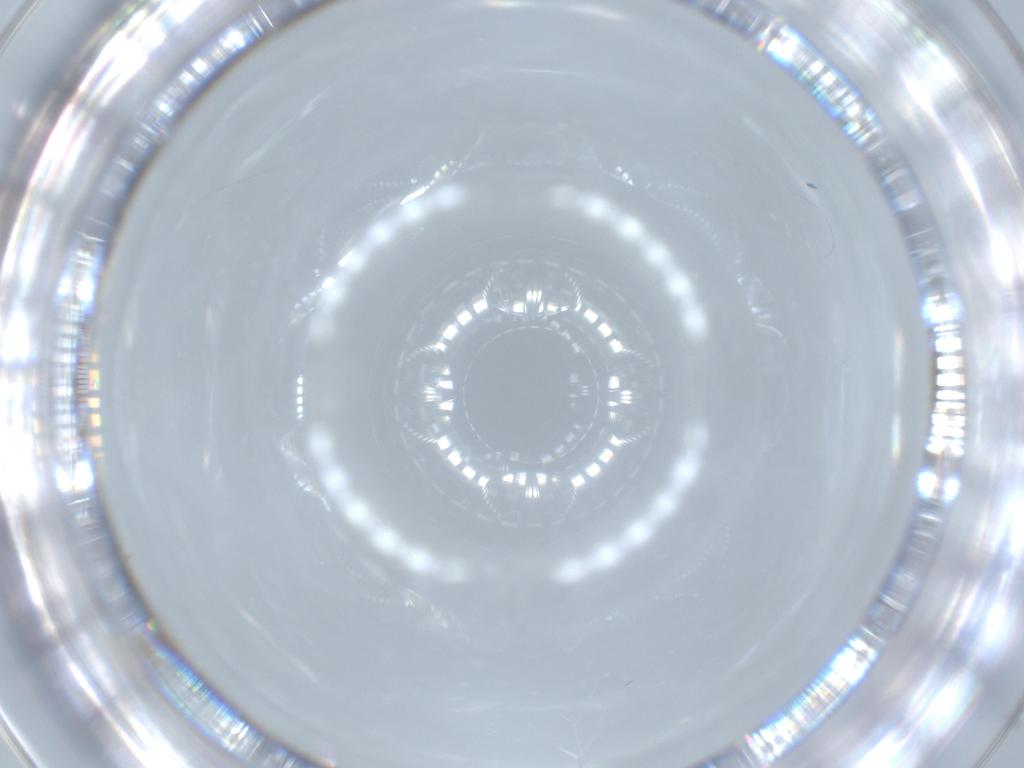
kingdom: Animalia
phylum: Arthropoda
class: Insecta
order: Hymenoptera
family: Trichogrammatidae
